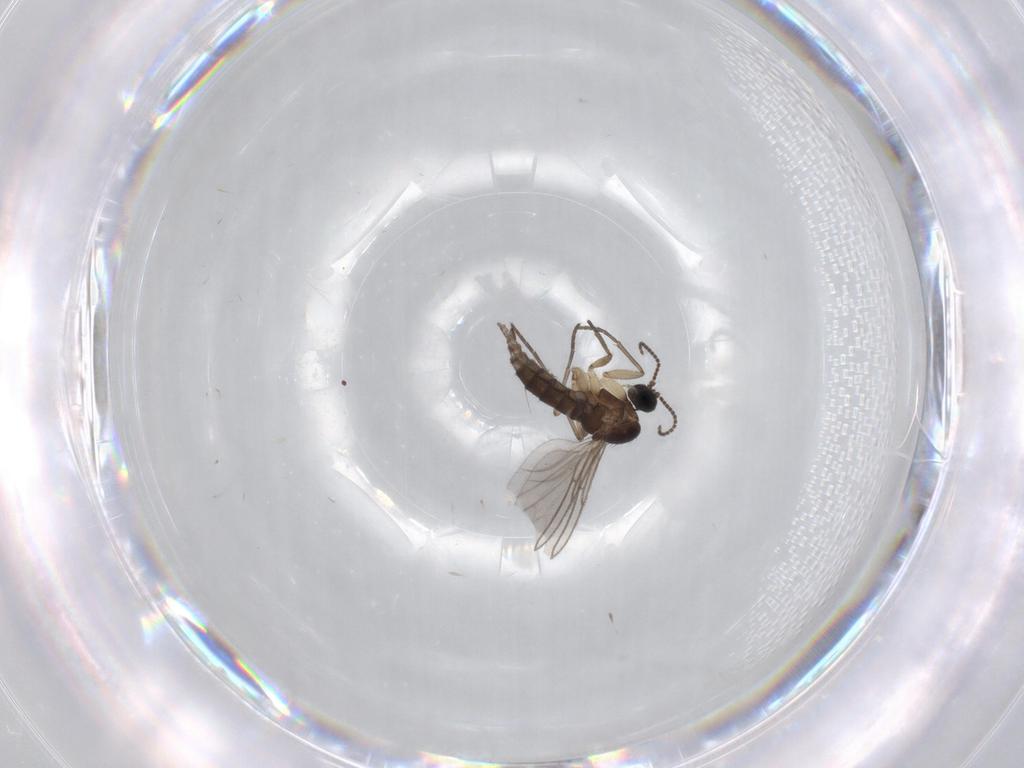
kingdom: Animalia
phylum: Arthropoda
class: Insecta
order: Diptera
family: Sciaridae
